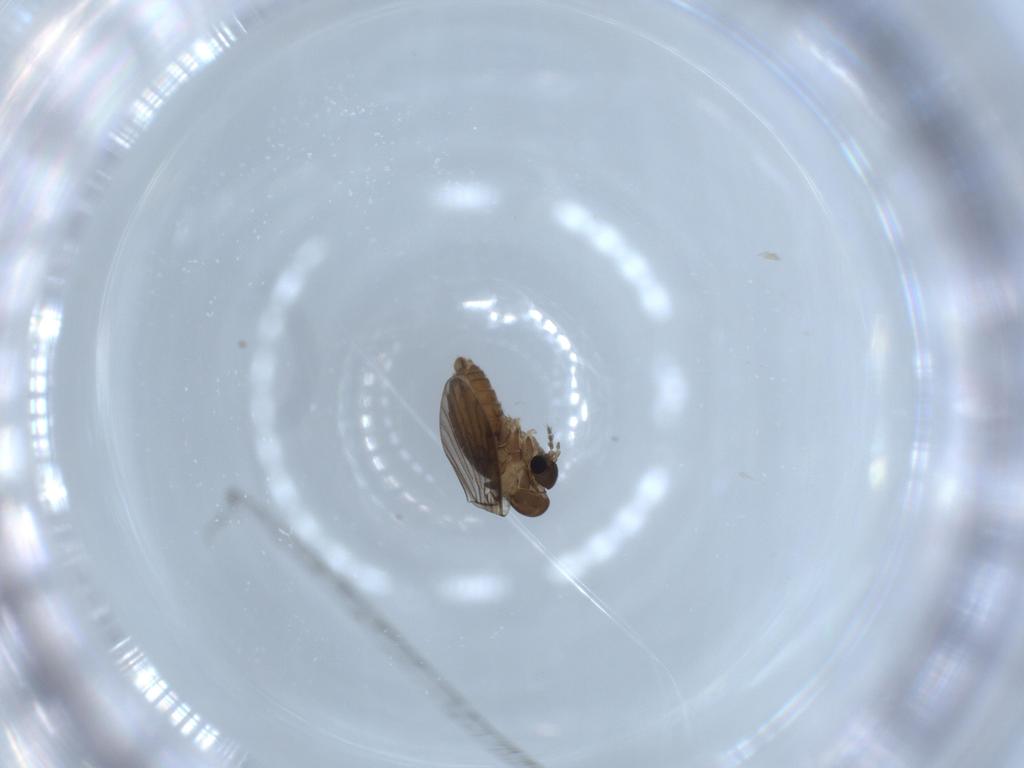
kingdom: Animalia
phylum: Arthropoda
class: Insecta
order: Diptera
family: Psychodidae
